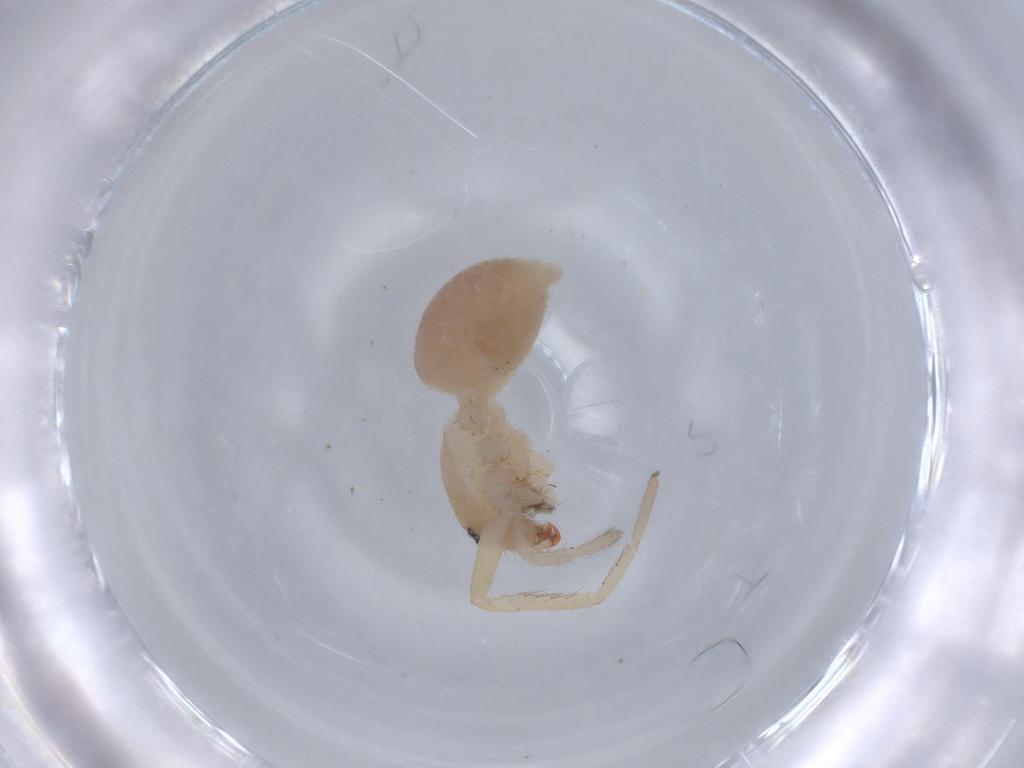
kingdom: Animalia
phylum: Arthropoda
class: Arachnida
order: Araneae
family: Corinnidae
